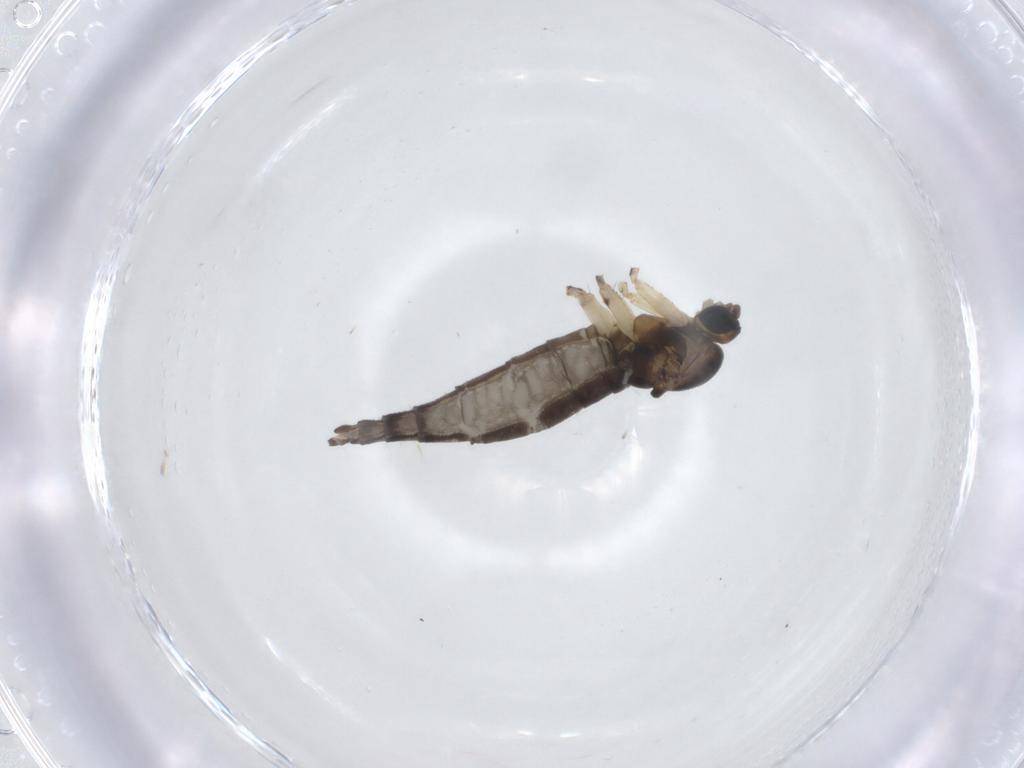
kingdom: Animalia
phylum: Arthropoda
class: Insecta
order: Diptera
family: Sciaridae
